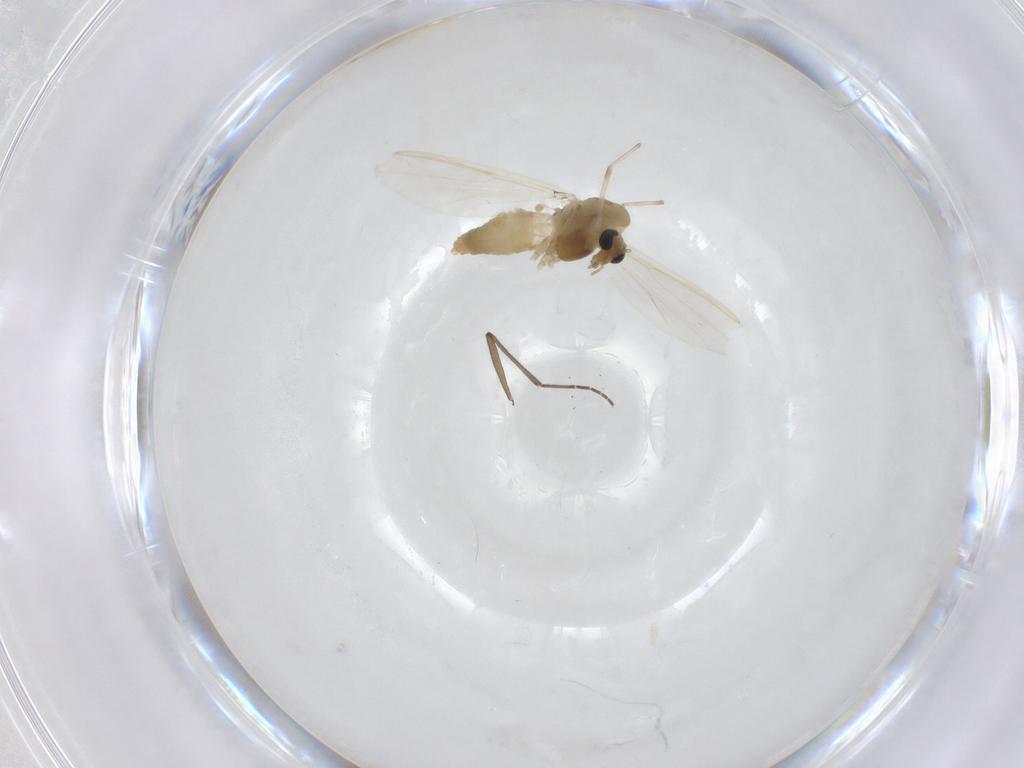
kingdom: Animalia
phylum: Arthropoda
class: Insecta
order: Diptera
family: Chironomidae
